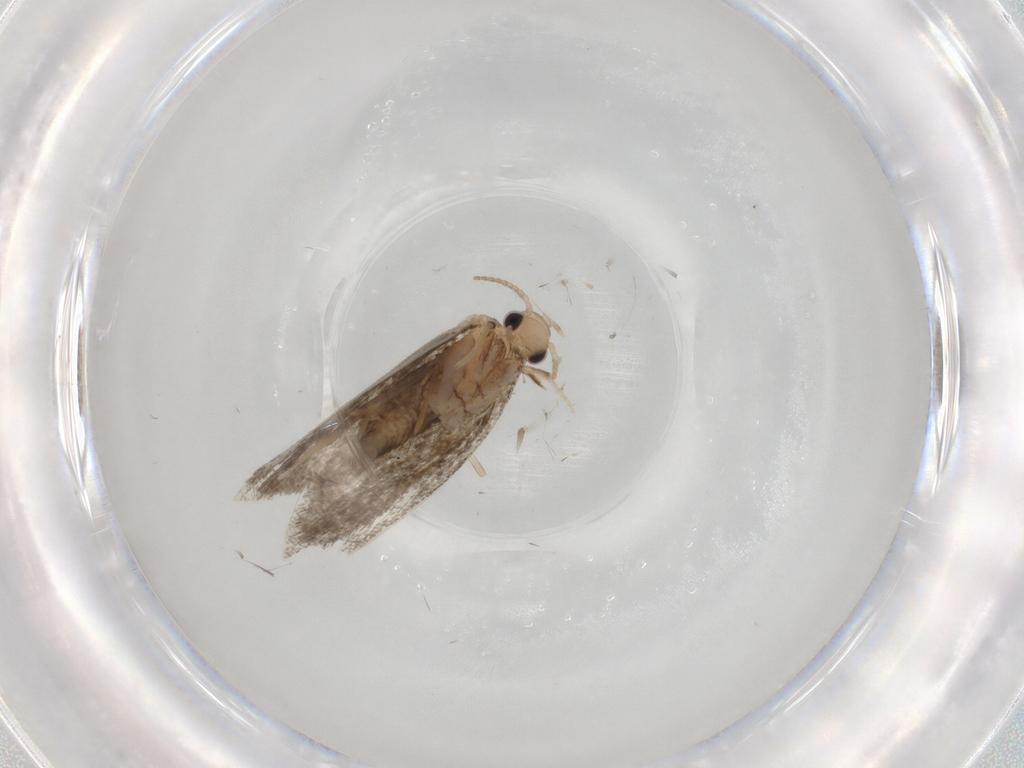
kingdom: Animalia
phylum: Arthropoda
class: Insecta
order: Lepidoptera
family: Psychidae
